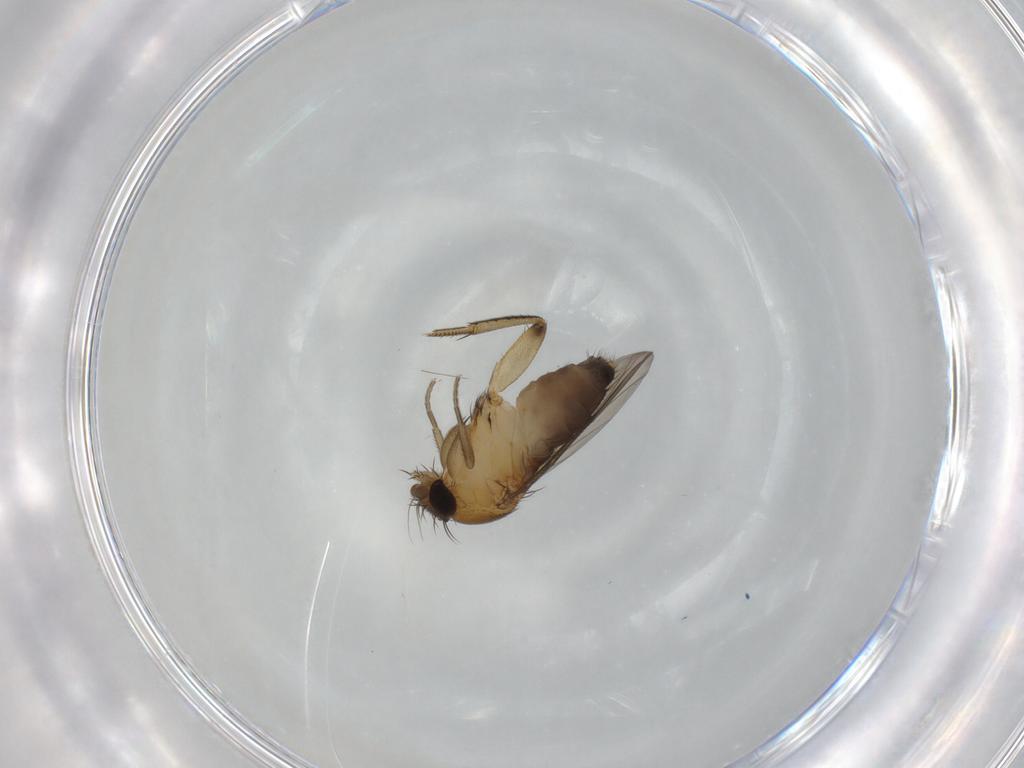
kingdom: Animalia
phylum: Arthropoda
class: Insecta
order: Diptera
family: Phoridae
